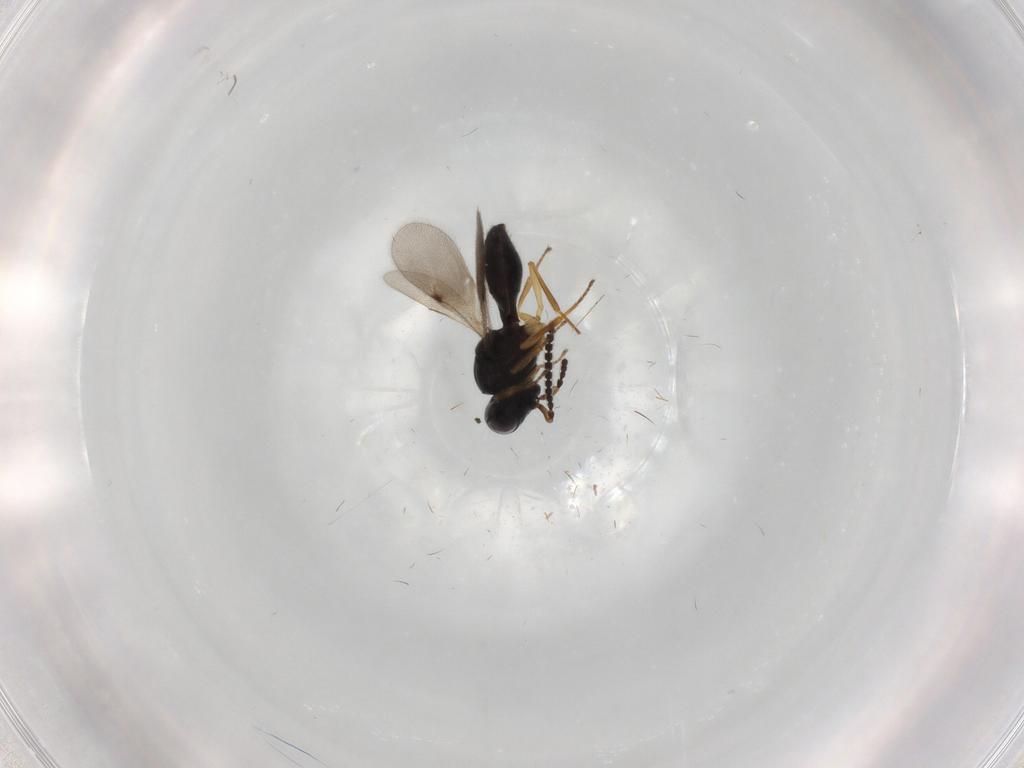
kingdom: Animalia
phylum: Arthropoda
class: Insecta
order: Hymenoptera
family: Scelionidae
